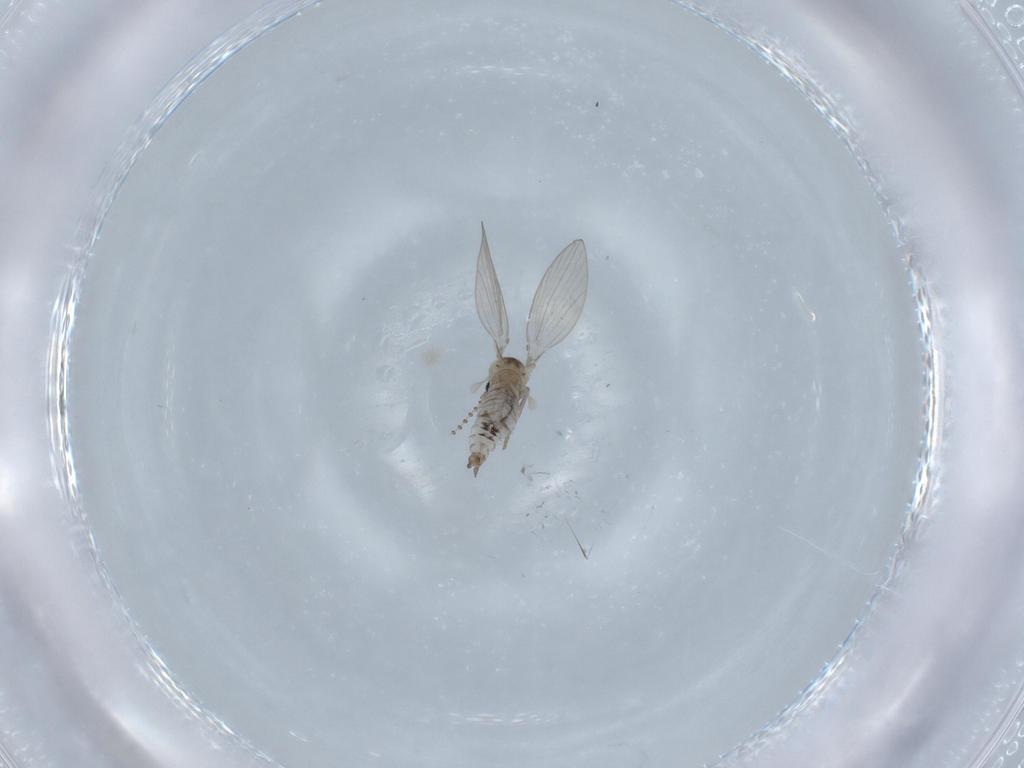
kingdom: Animalia
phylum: Arthropoda
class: Insecta
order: Diptera
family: Psychodidae
